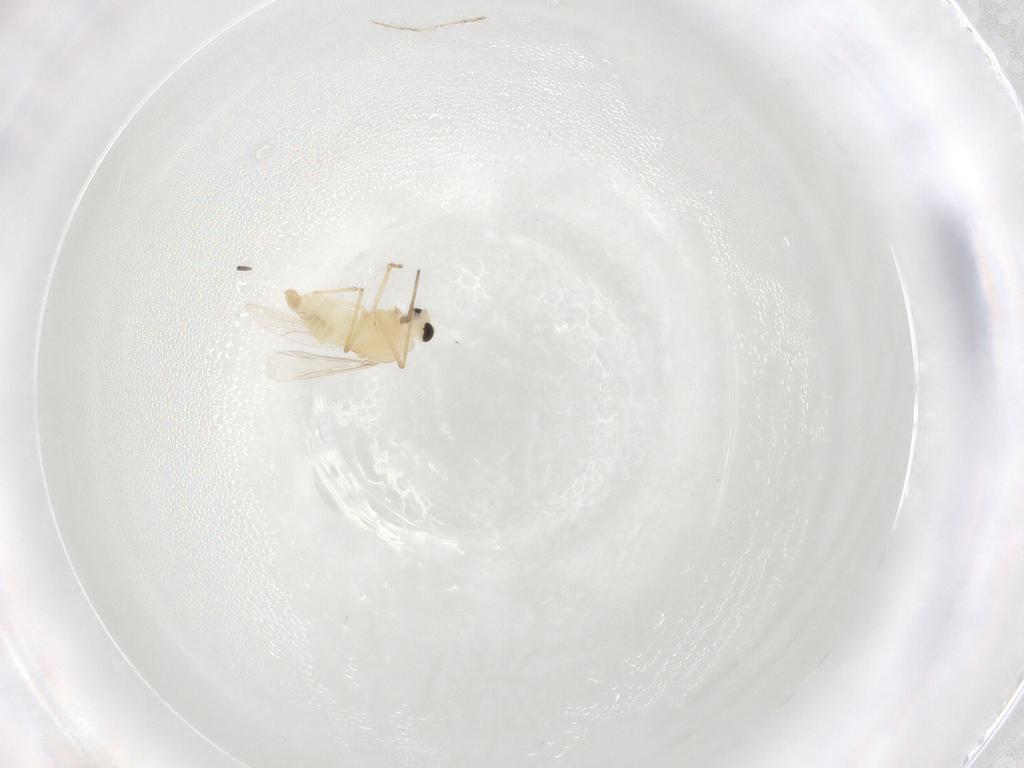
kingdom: Animalia
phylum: Arthropoda
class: Insecta
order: Diptera
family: Chironomidae
